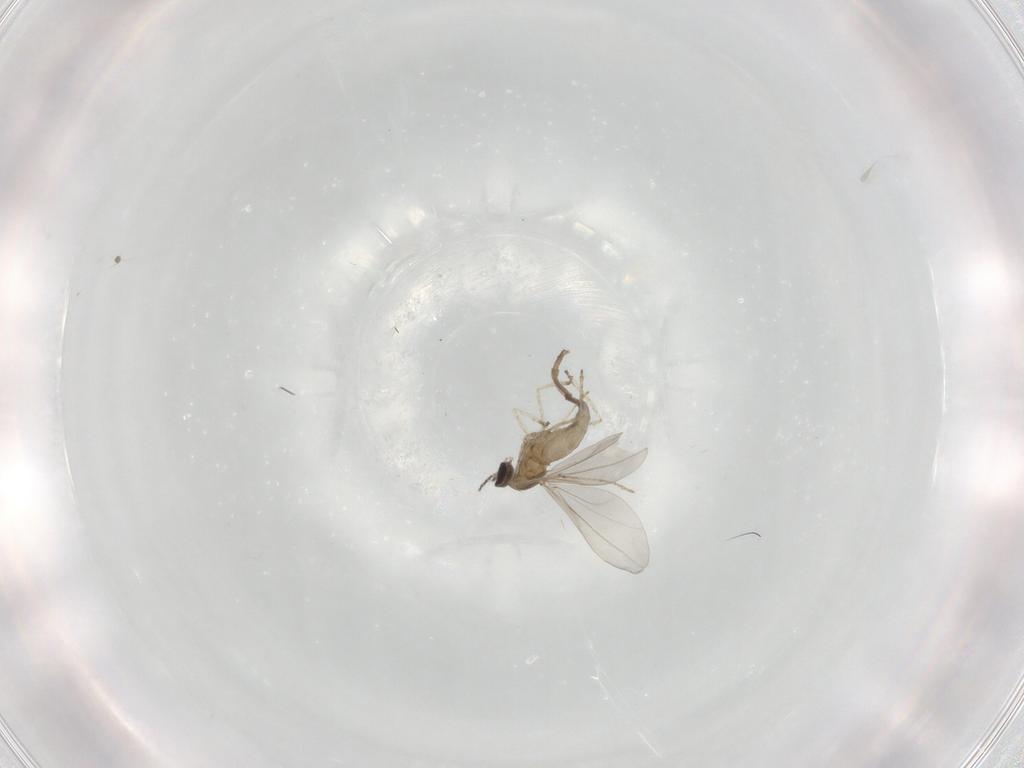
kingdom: Animalia
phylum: Arthropoda
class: Insecta
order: Diptera
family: Cecidomyiidae
